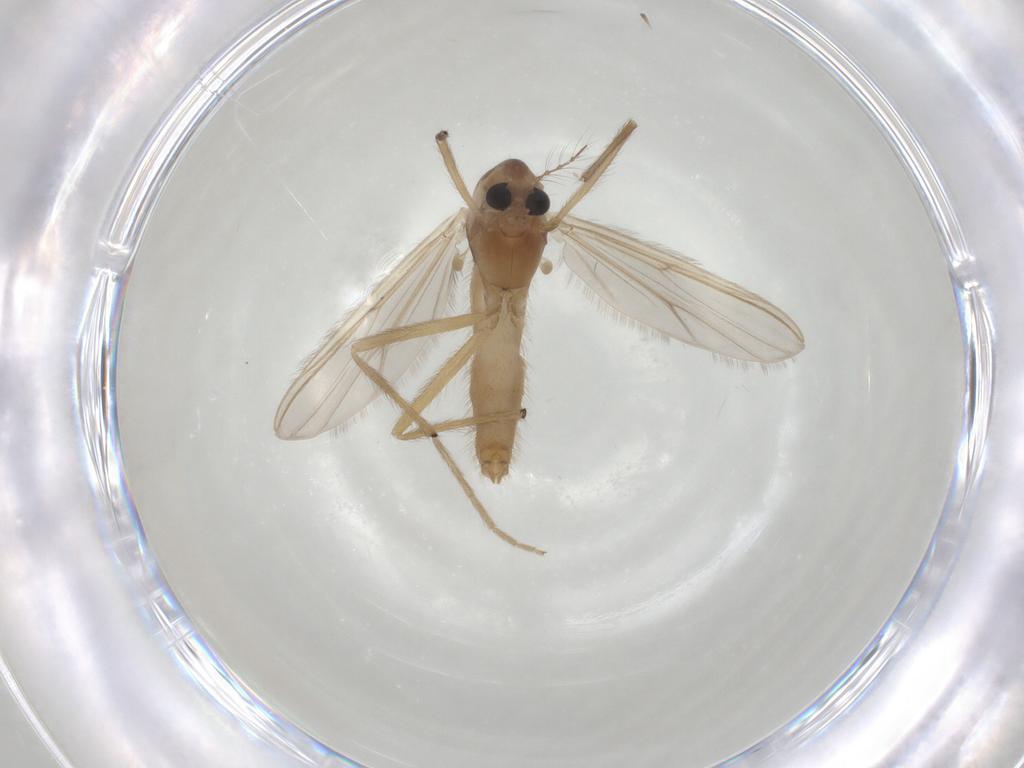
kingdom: Animalia
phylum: Arthropoda
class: Insecta
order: Diptera
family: Chironomidae
